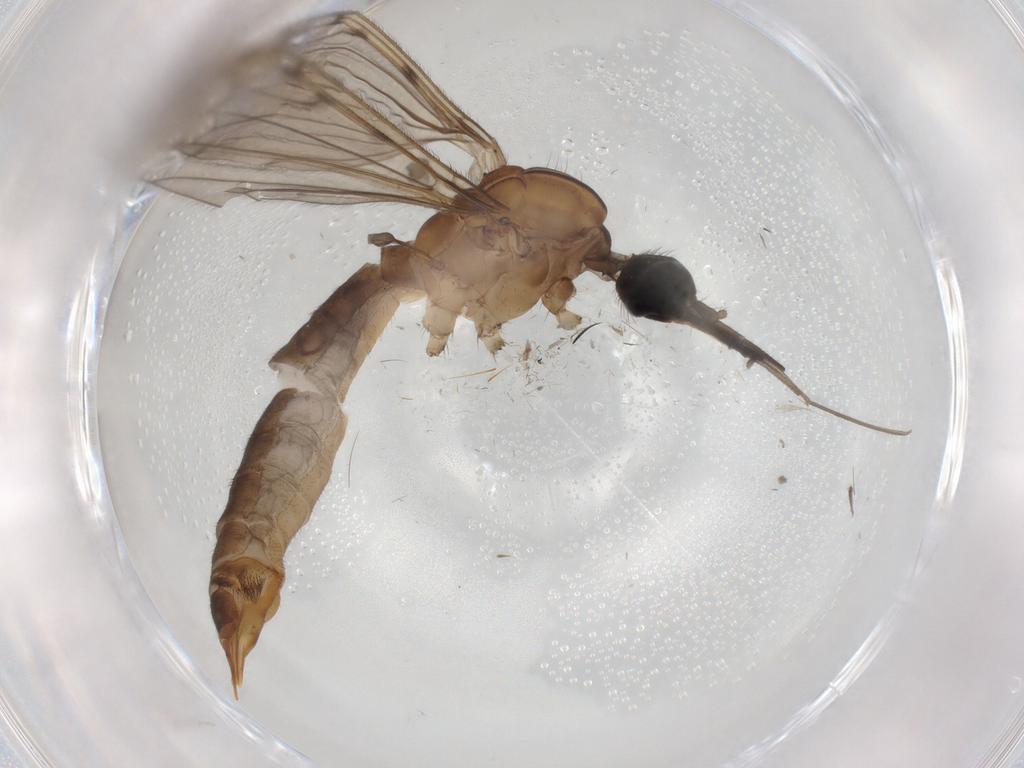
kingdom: Animalia
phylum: Arthropoda
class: Insecta
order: Diptera
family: Limoniidae
